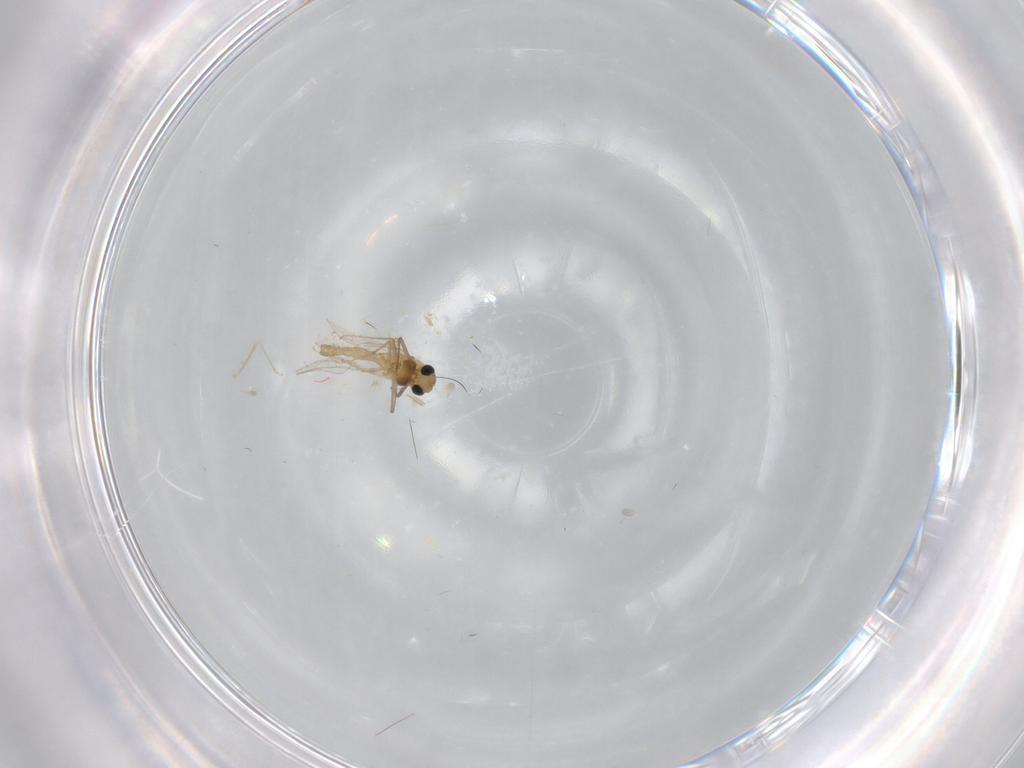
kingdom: Animalia
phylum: Arthropoda
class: Insecta
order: Diptera
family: Chironomidae
